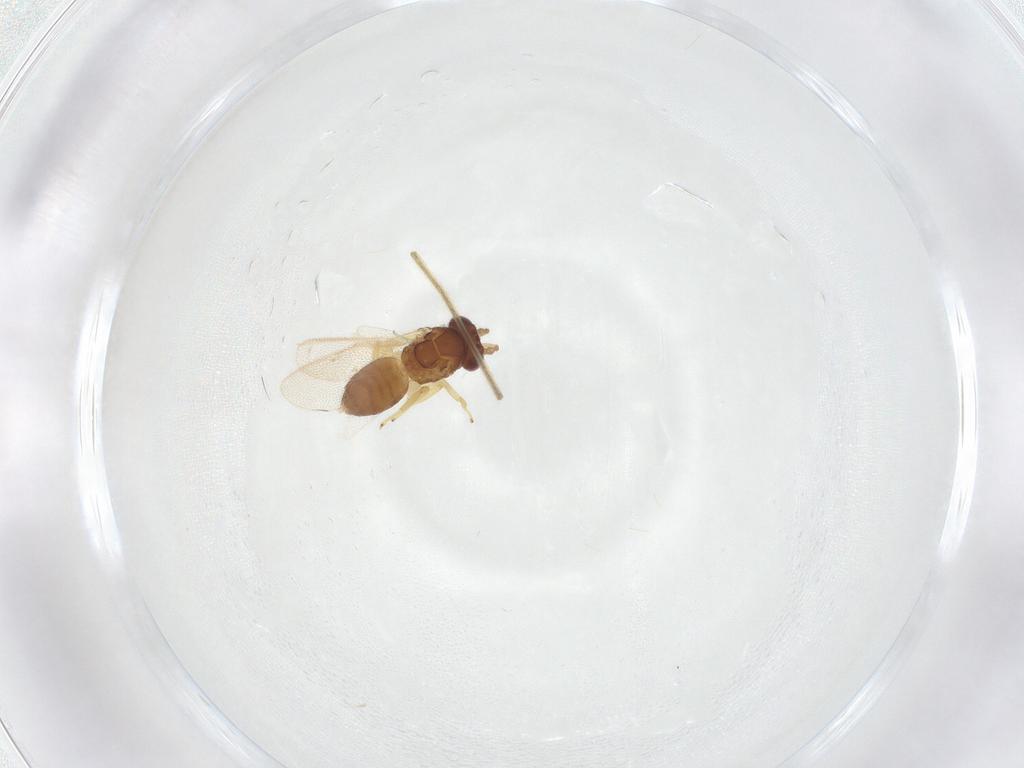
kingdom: Animalia
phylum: Arthropoda
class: Insecta
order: Hymenoptera
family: Eulophidae
